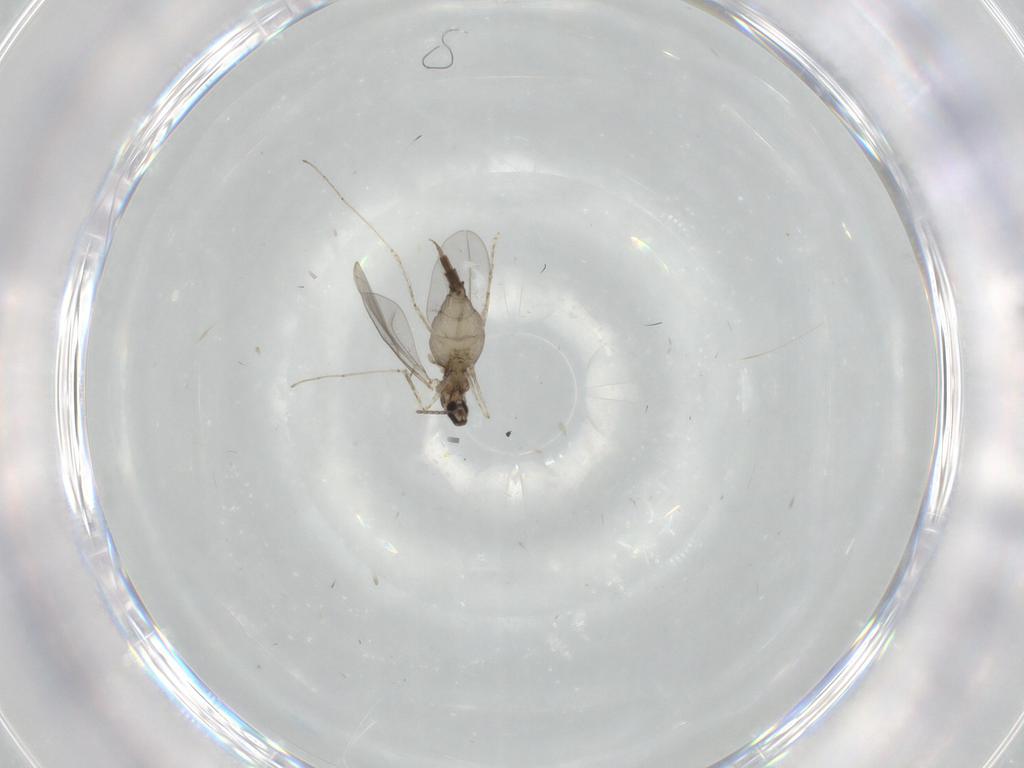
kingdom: Animalia
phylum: Arthropoda
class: Insecta
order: Diptera
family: Cecidomyiidae
